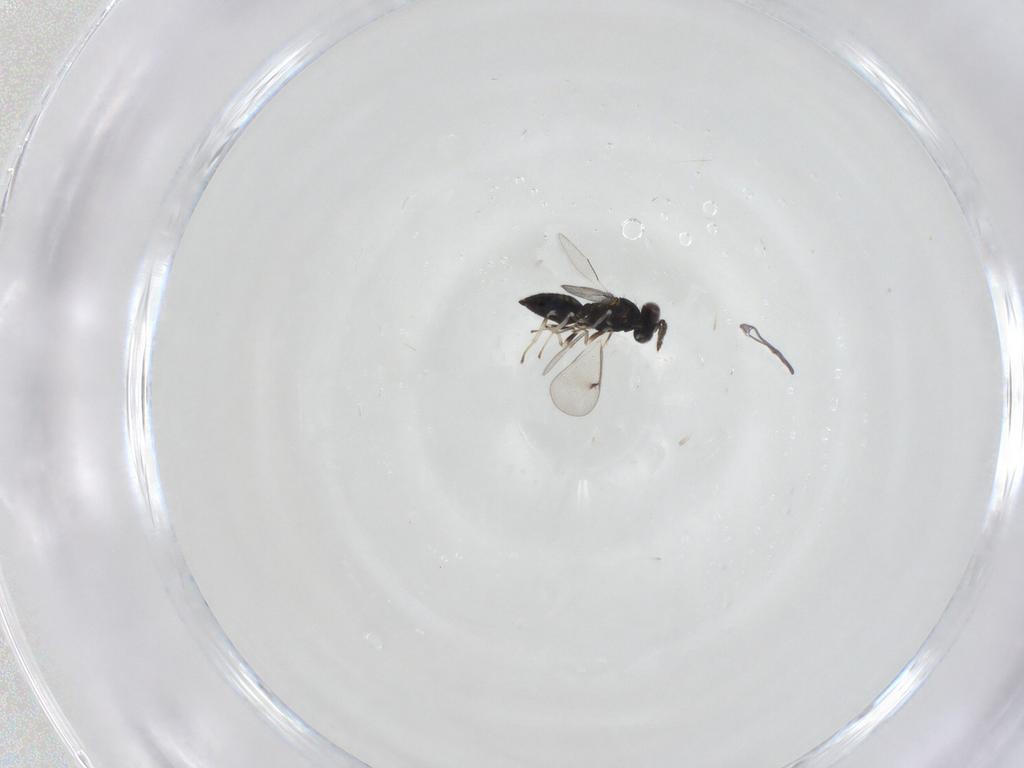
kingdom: Animalia
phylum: Arthropoda
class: Insecta
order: Hymenoptera
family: Eulophidae
